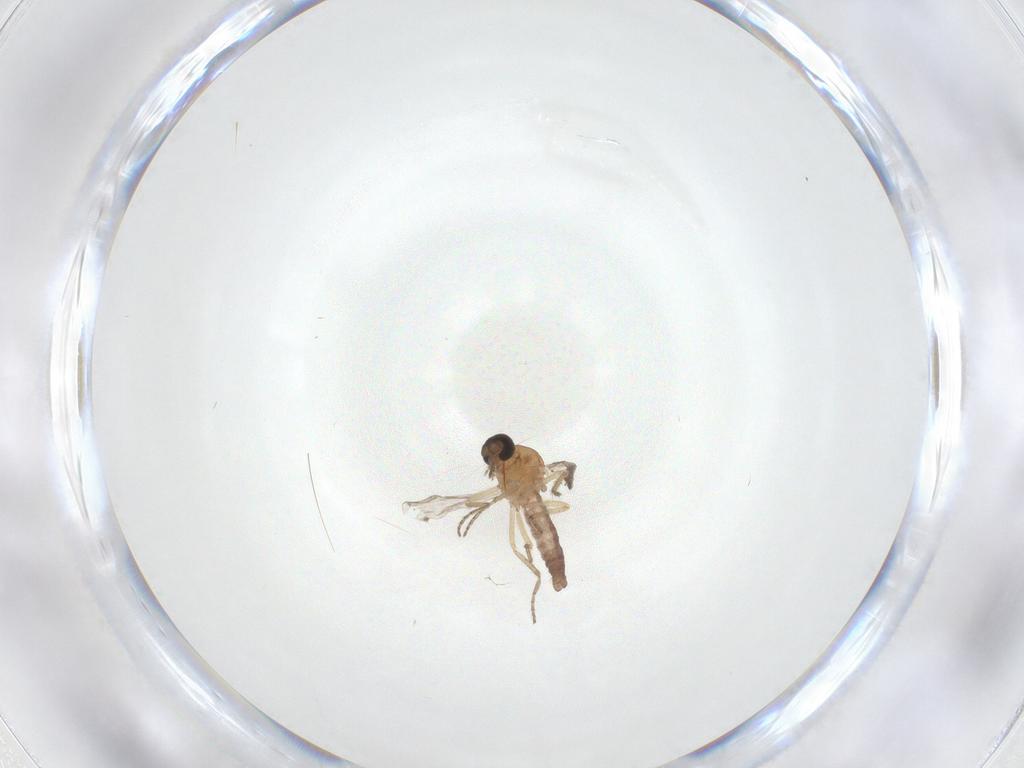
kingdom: Animalia
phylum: Arthropoda
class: Insecta
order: Diptera
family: Ceratopogonidae
